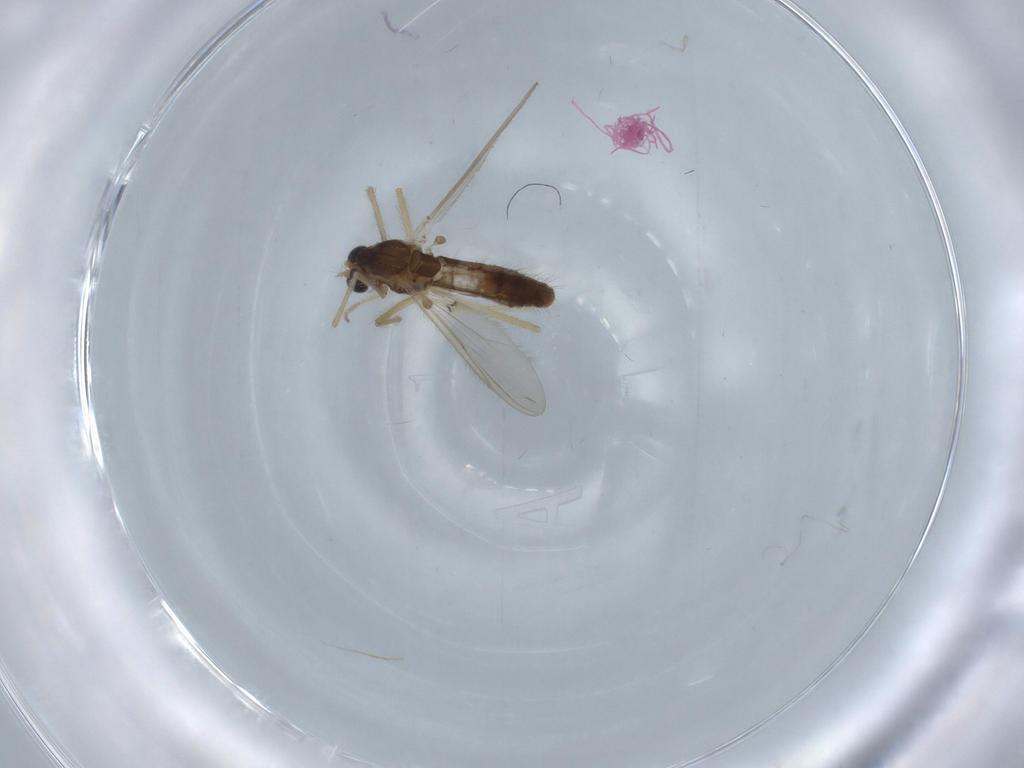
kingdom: Animalia
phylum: Arthropoda
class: Insecta
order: Diptera
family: Chironomidae
